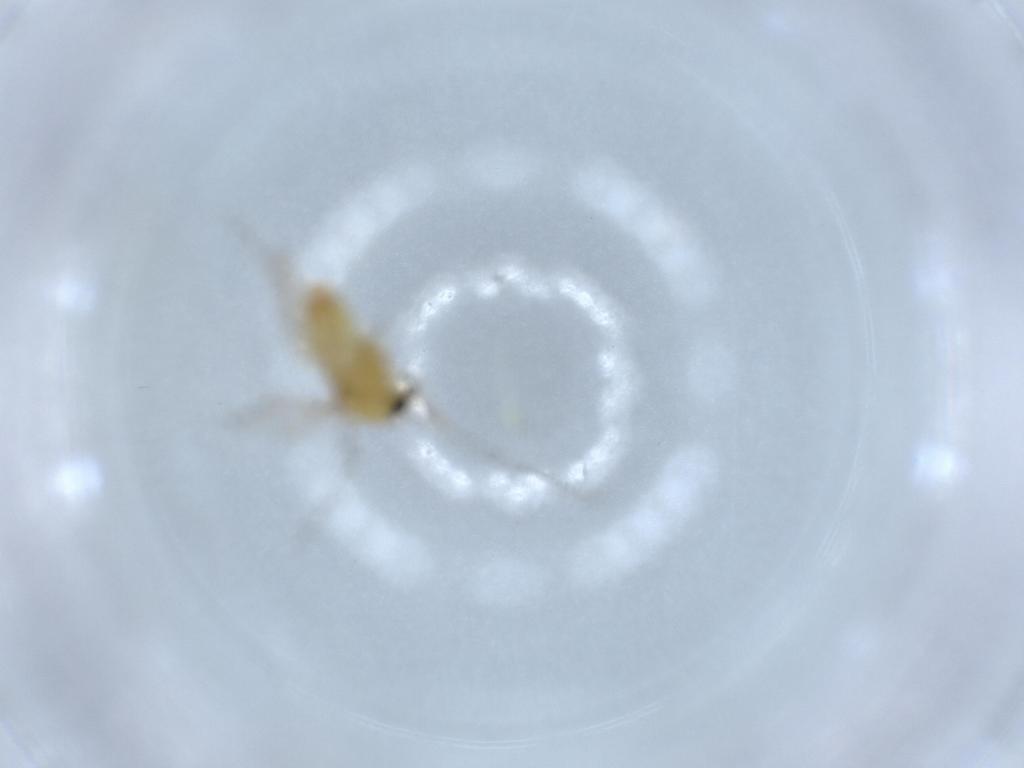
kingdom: Animalia
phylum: Arthropoda
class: Insecta
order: Diptera
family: Chironomidae
